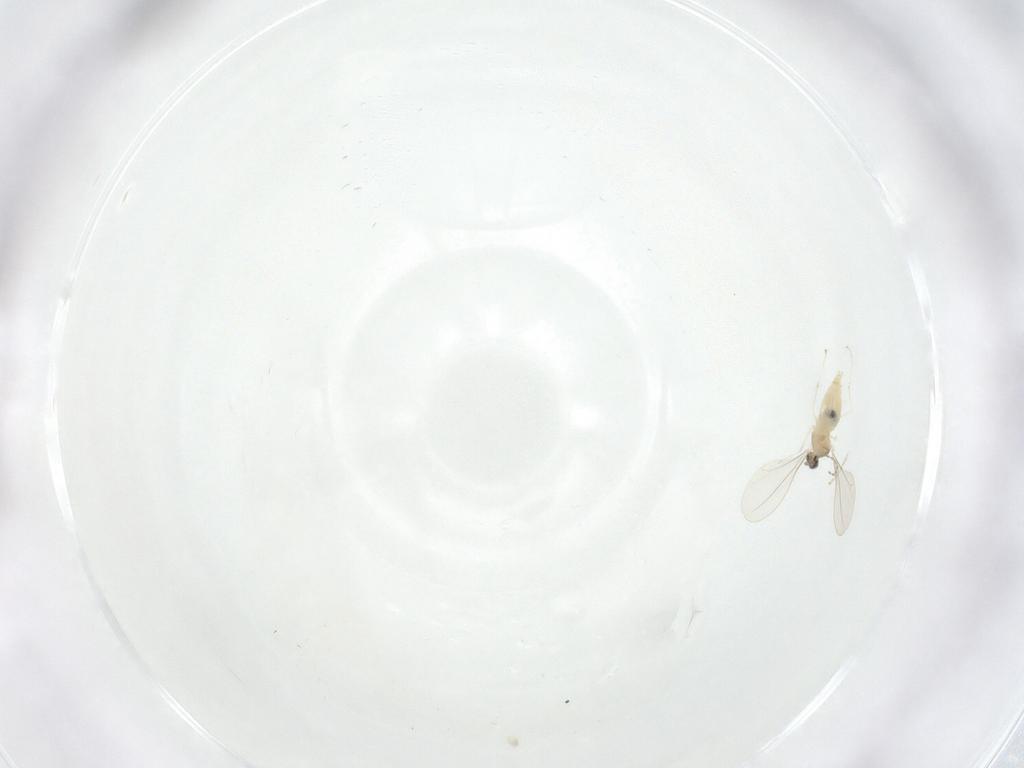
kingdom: Animalia
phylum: Arthropoda
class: Insecta
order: Diptera
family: Cecidomyiidae
